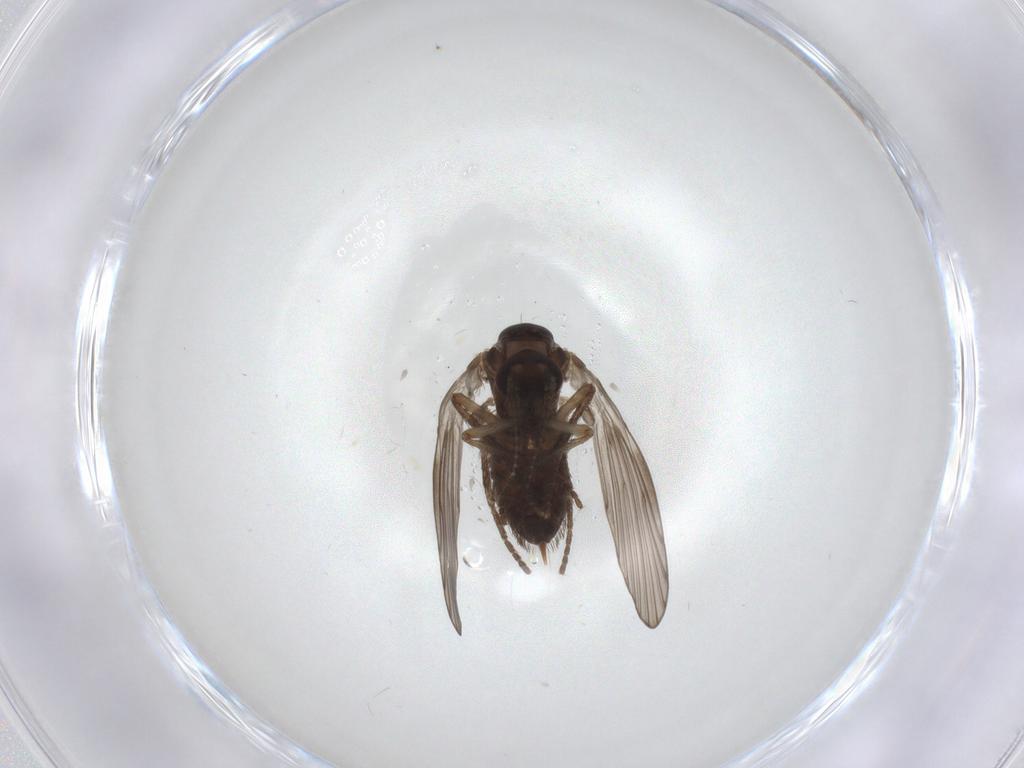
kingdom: Animalia
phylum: Arthropoda
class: Insecta
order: Diptera
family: Psychodidae
